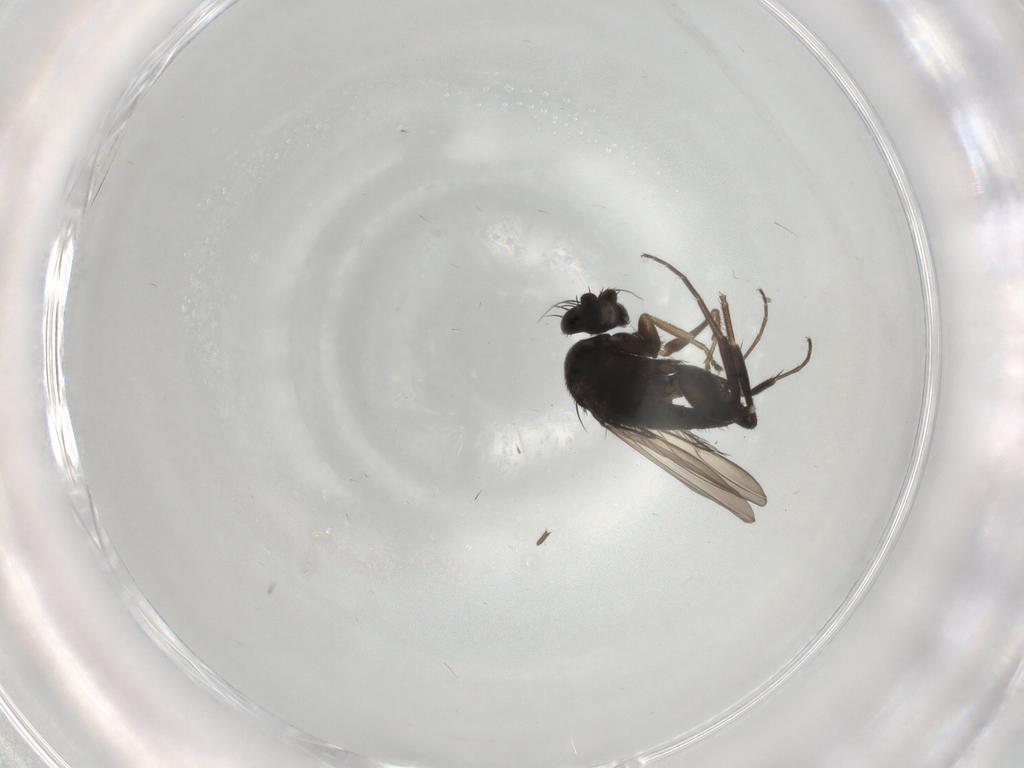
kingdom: Animalia
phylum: Arthropoda
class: Insecta
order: Diptera
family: Phoridae
